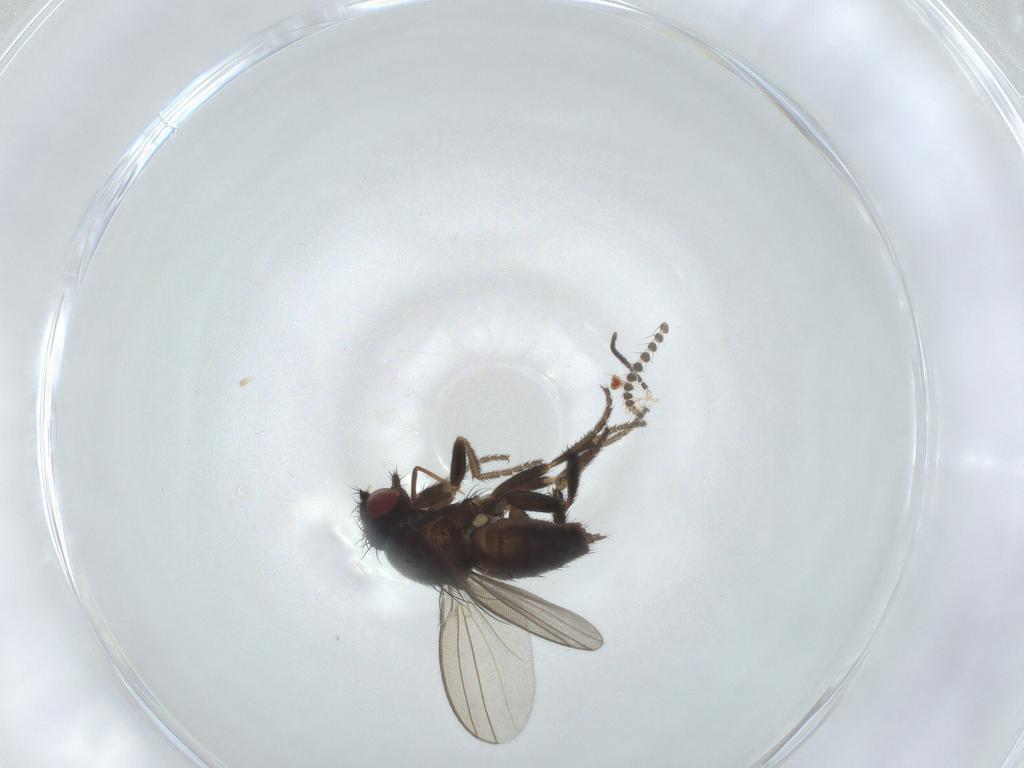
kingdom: Animalia
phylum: Arthropoda
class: Insecta
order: Diptera
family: Milichiidae
